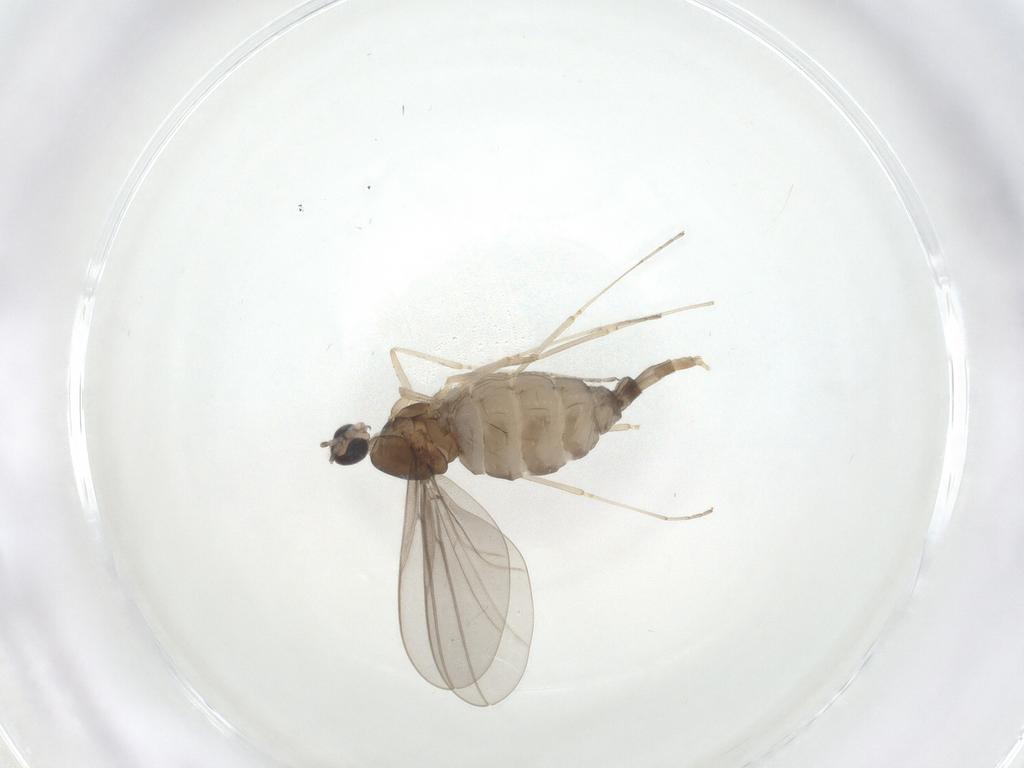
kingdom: Animalia
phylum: Arthropoda
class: Insecta
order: Diptera
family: Cecidomyiidae
